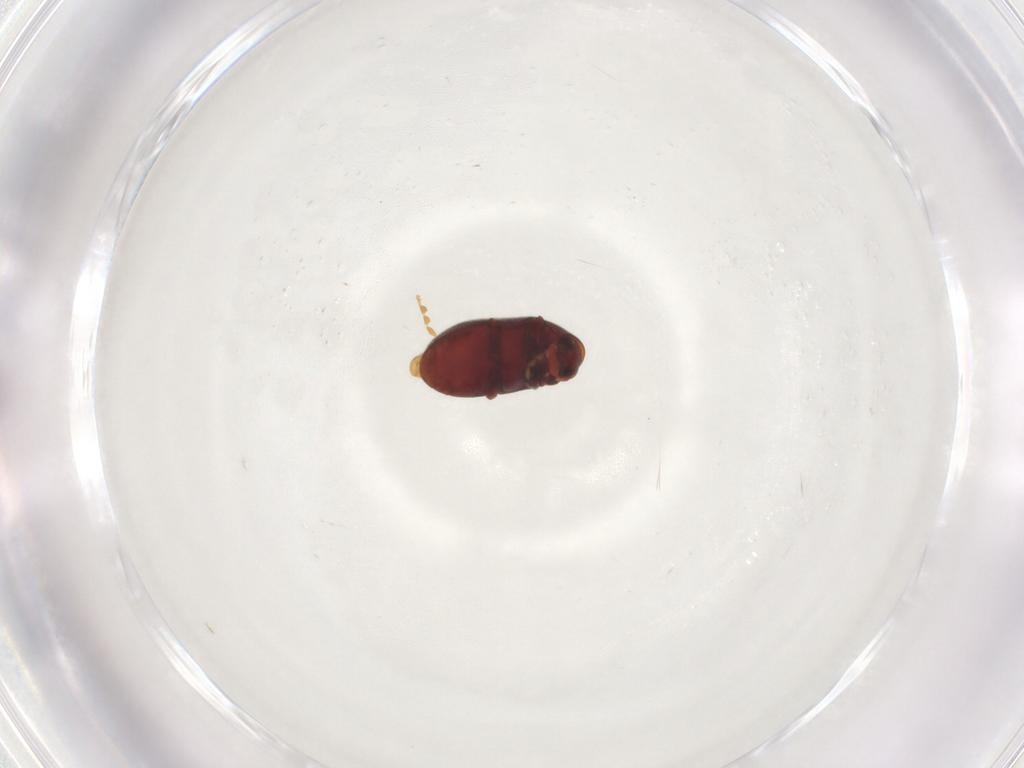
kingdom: Animalia
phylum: Arthropoda
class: Insecta
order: Coleoptera
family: Ptinidae
